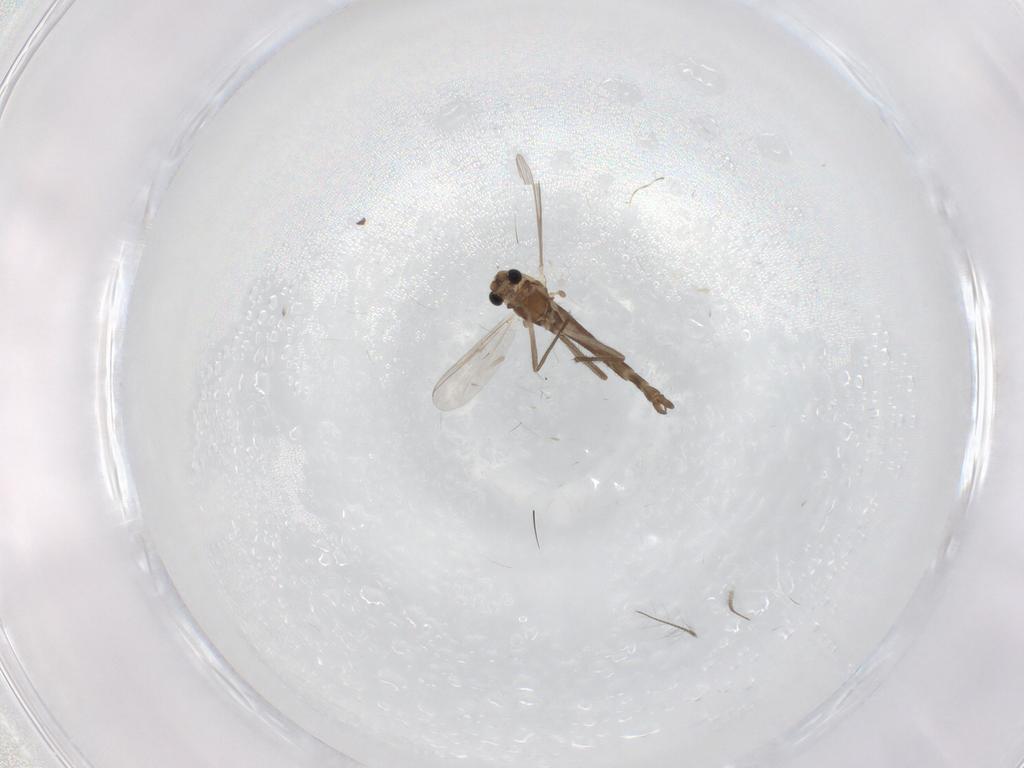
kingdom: Animalia
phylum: Arthropoda
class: Insecta
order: Diptera
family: Chironomidae
